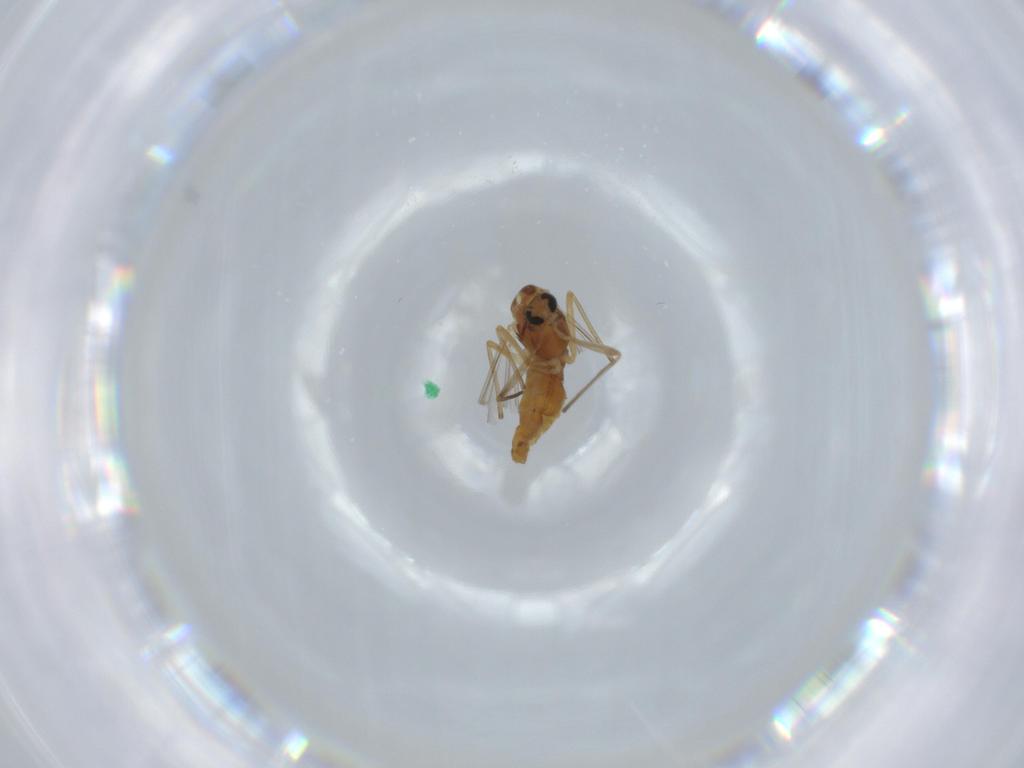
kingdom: Animalia
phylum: Arthropoda
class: Insecta
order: Diptera
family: Chironomidae
